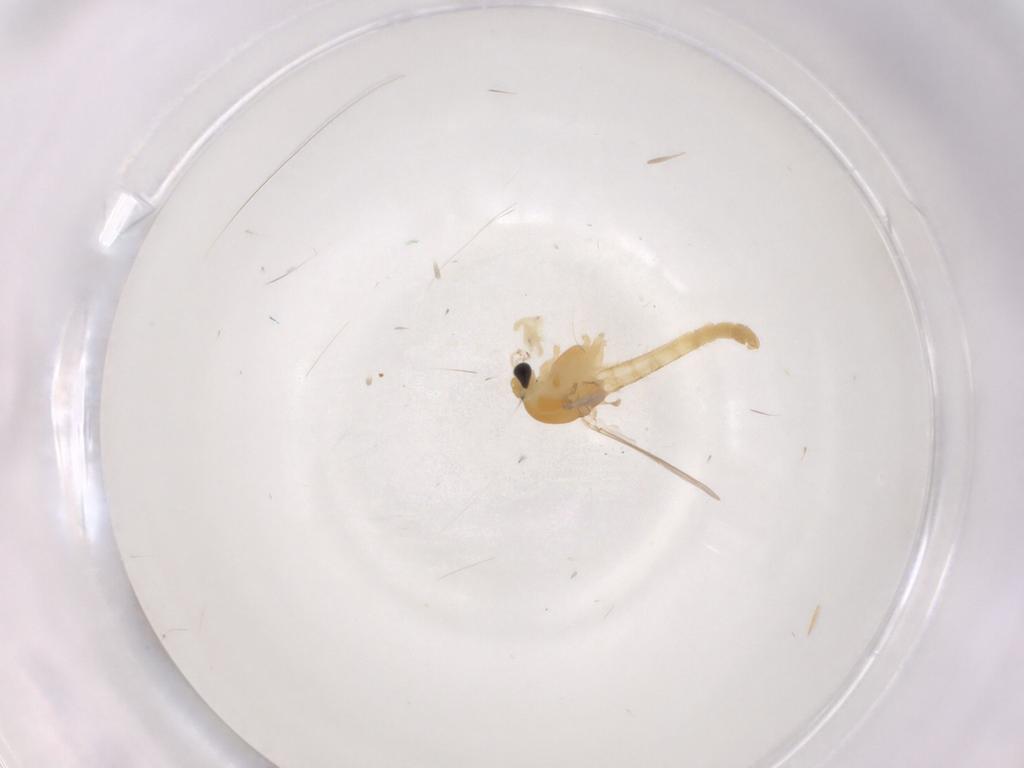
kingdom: Animalia
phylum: Arthropoda
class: Insecta
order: Diptera
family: Chironomidae
